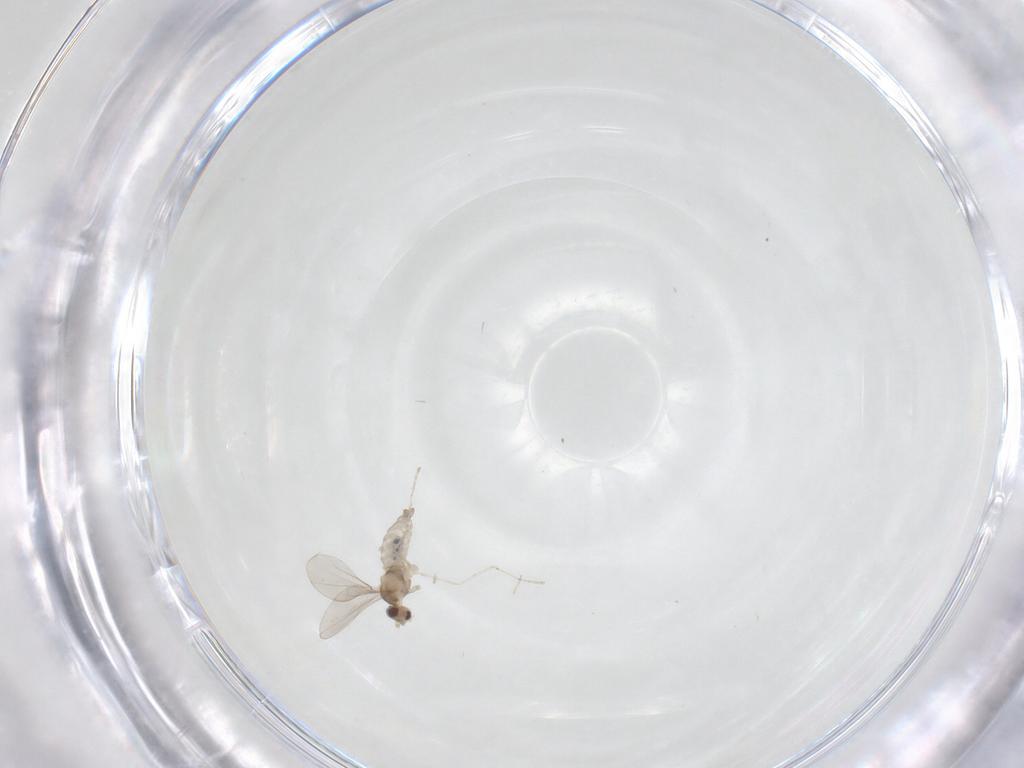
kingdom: Animalia
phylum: Arthropoda
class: Insecta
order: Diptera
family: Cecidomyiidae
